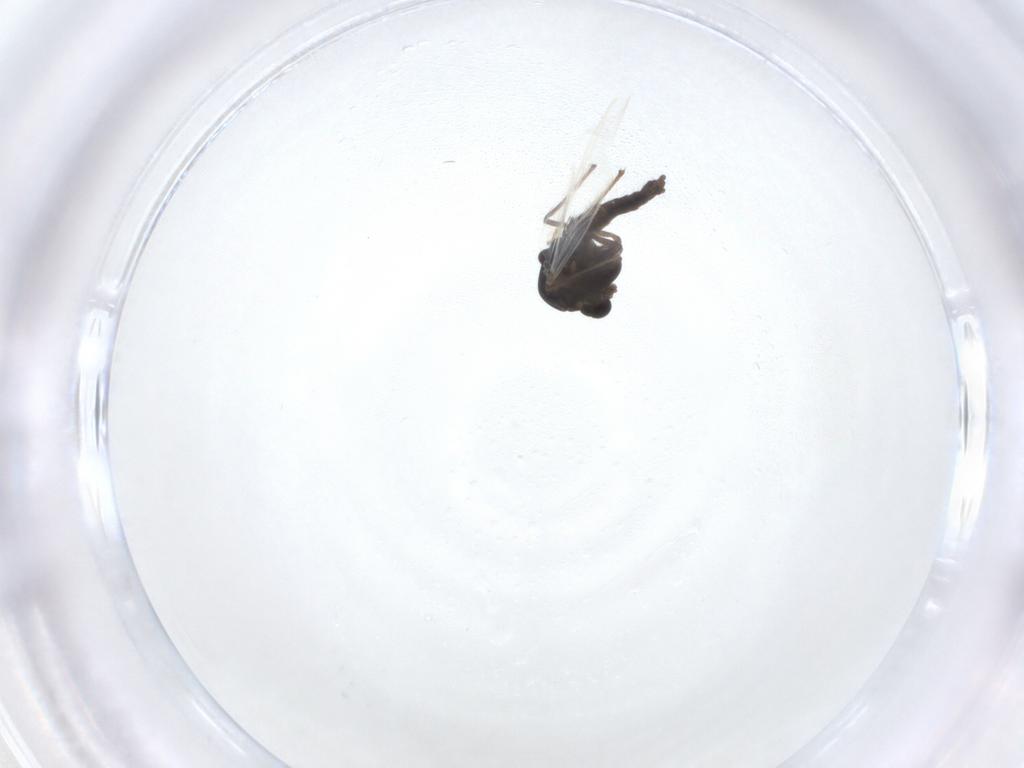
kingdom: Animalia
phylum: Arthropoda
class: Insecta
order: Diptera
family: Chironomidae
